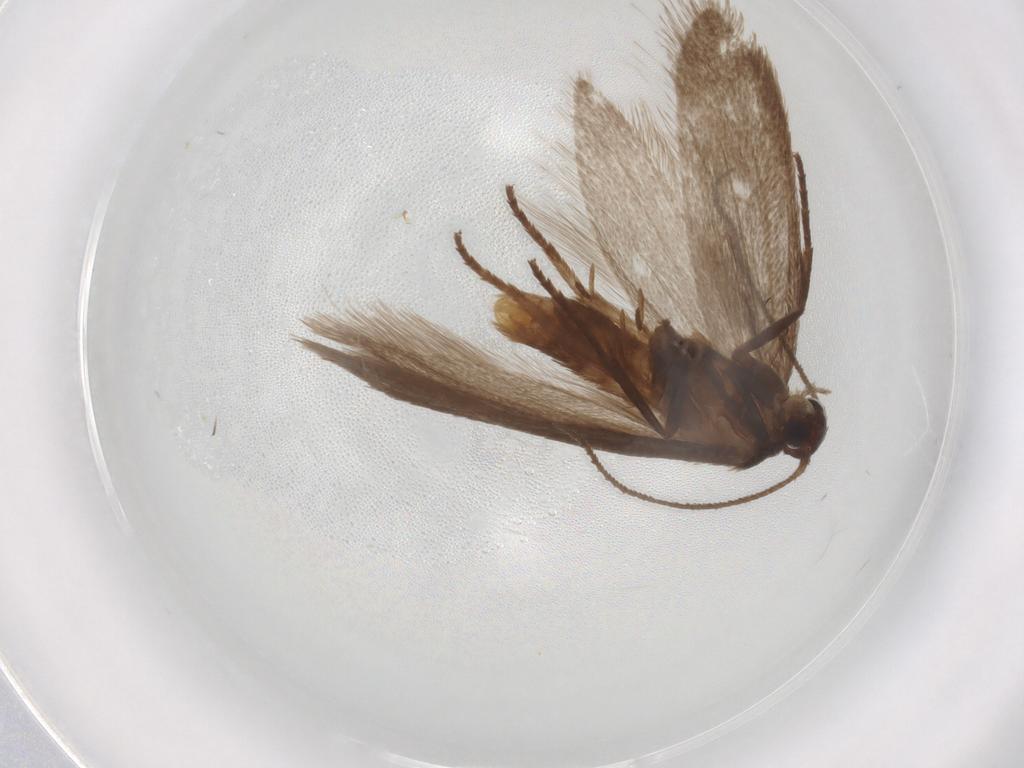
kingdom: Animalia
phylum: Arthropoda
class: Insecta
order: Lepidoptera
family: Limacodidae
